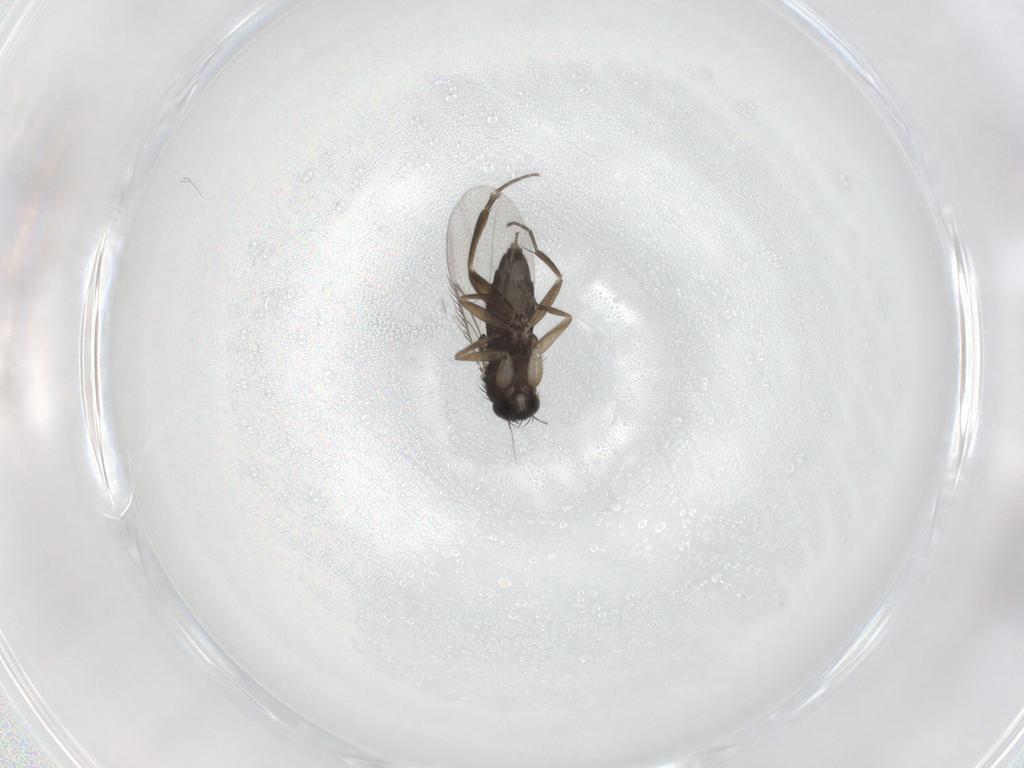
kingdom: Animalia
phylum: Arthropoda
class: Insecta
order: Diptera
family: Phoridae
